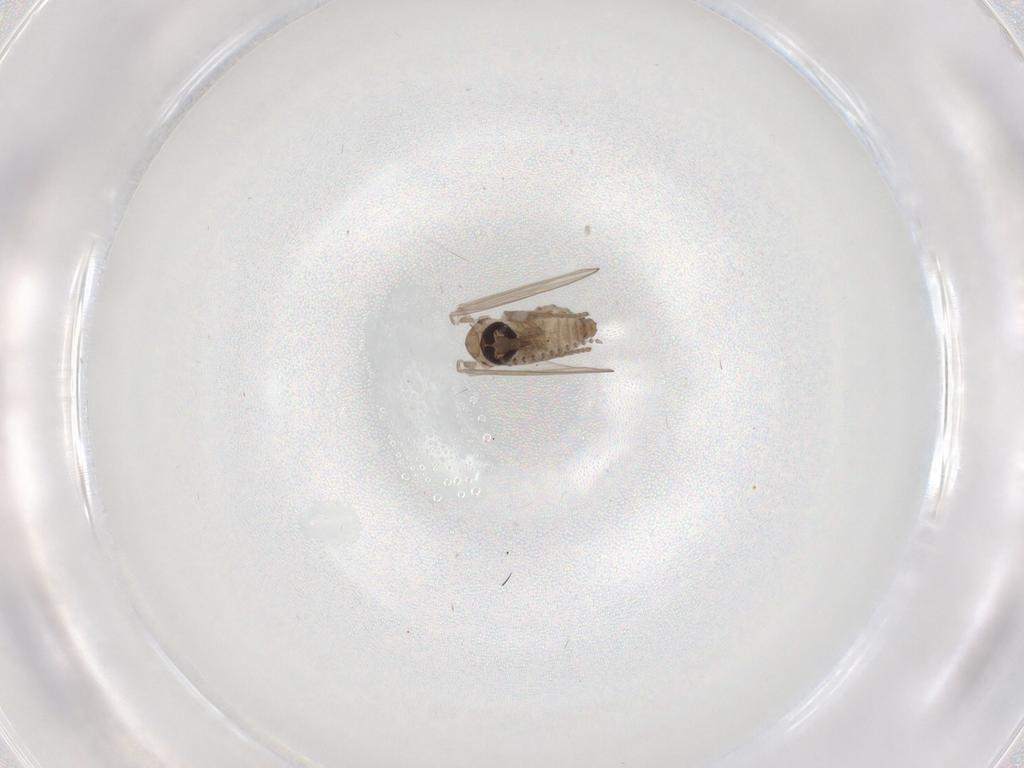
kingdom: Animalia
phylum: Arthropoda
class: Insecta
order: Diptera
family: Psychodidae
